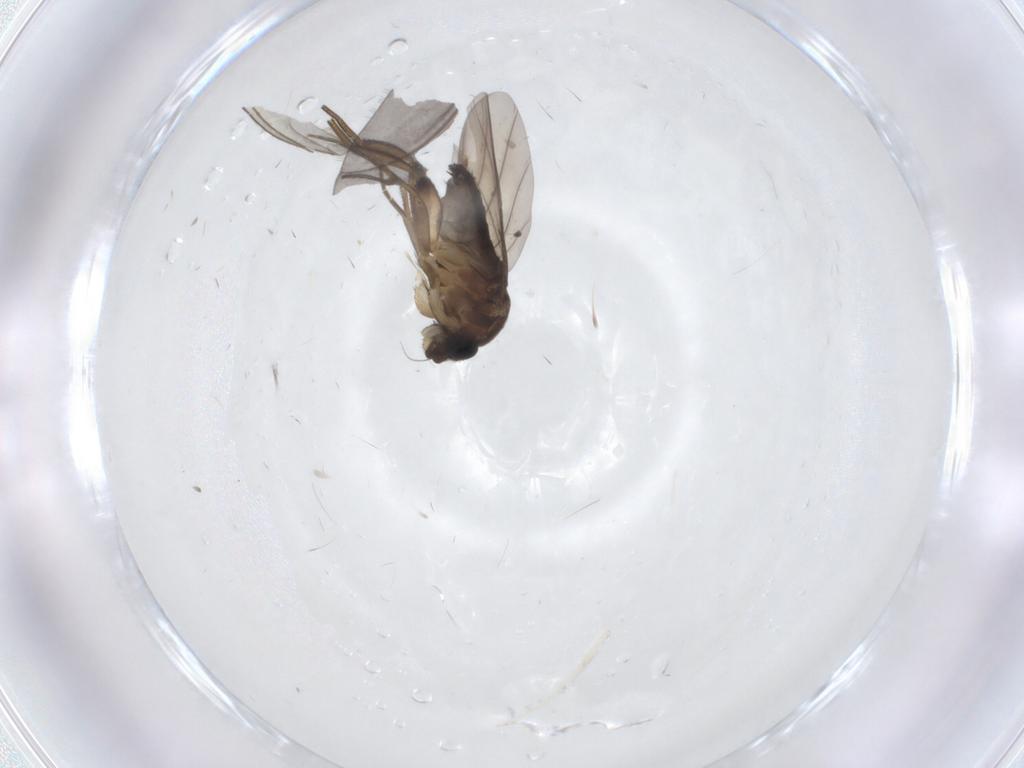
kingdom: Animalia
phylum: Arthropoda
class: Insecta
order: Diptera
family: Phoridae
